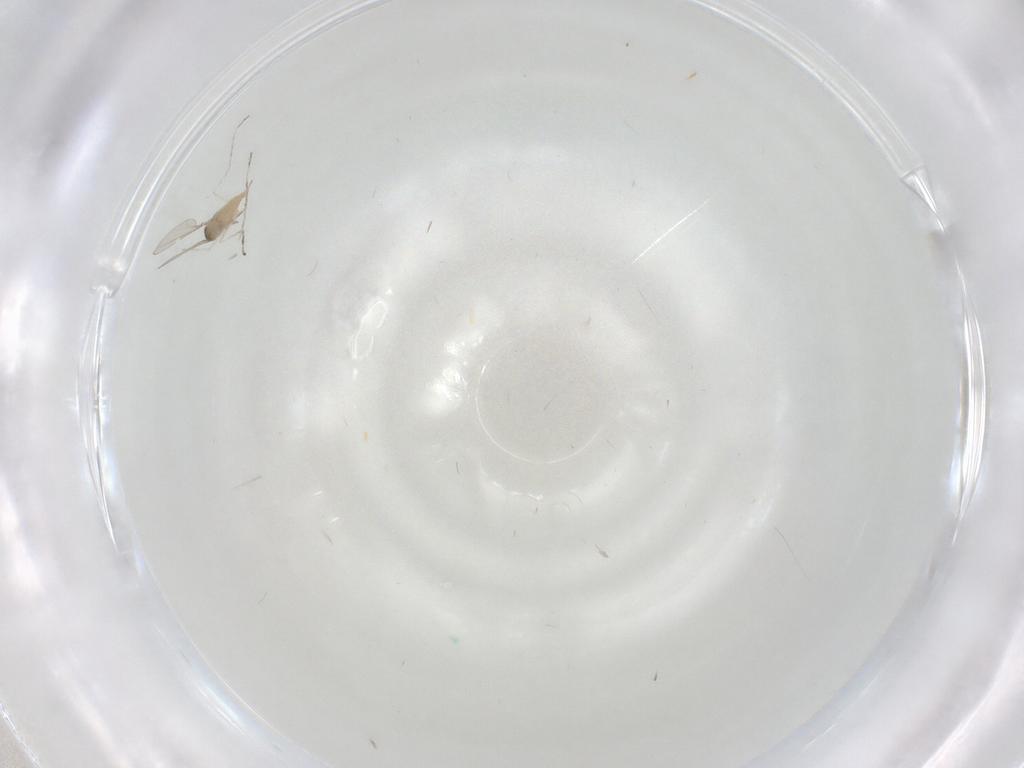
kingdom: Animalia
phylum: Arthropoda
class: Insecta
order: Diptera
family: Ceratopogonidae
